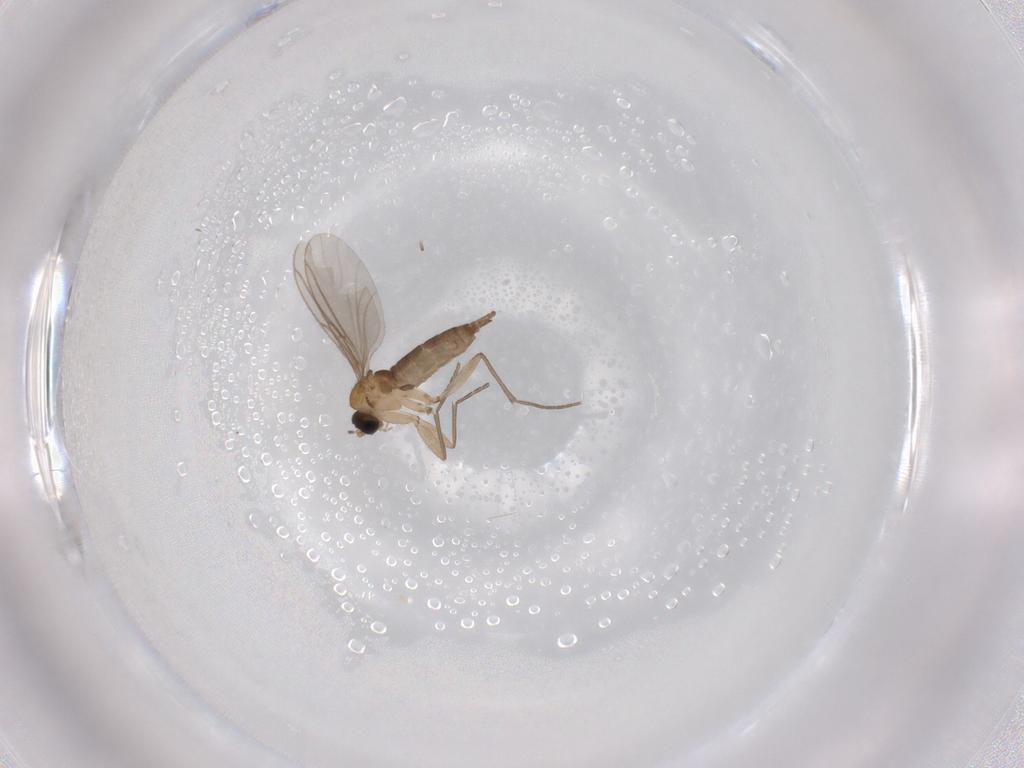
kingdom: Animalia
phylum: Arthropoda
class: Insecta
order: Diptera
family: Sciaridae
